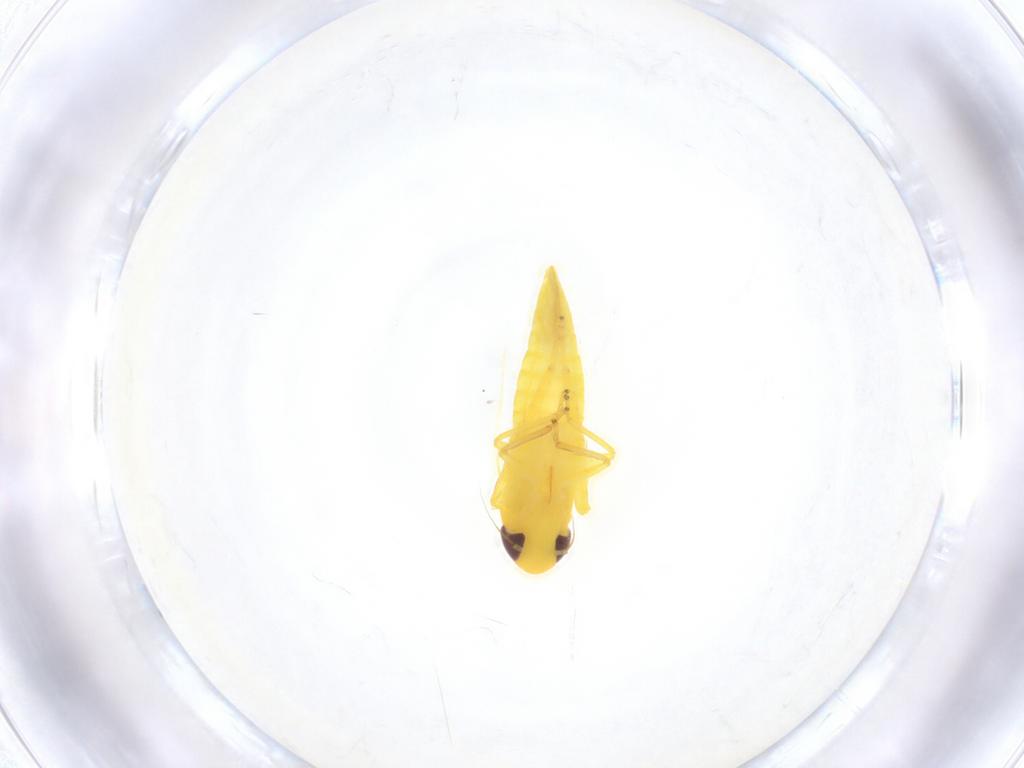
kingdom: Animalia
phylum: Arthropoda
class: Insecta
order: Hemiptera
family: Cicadellidae
